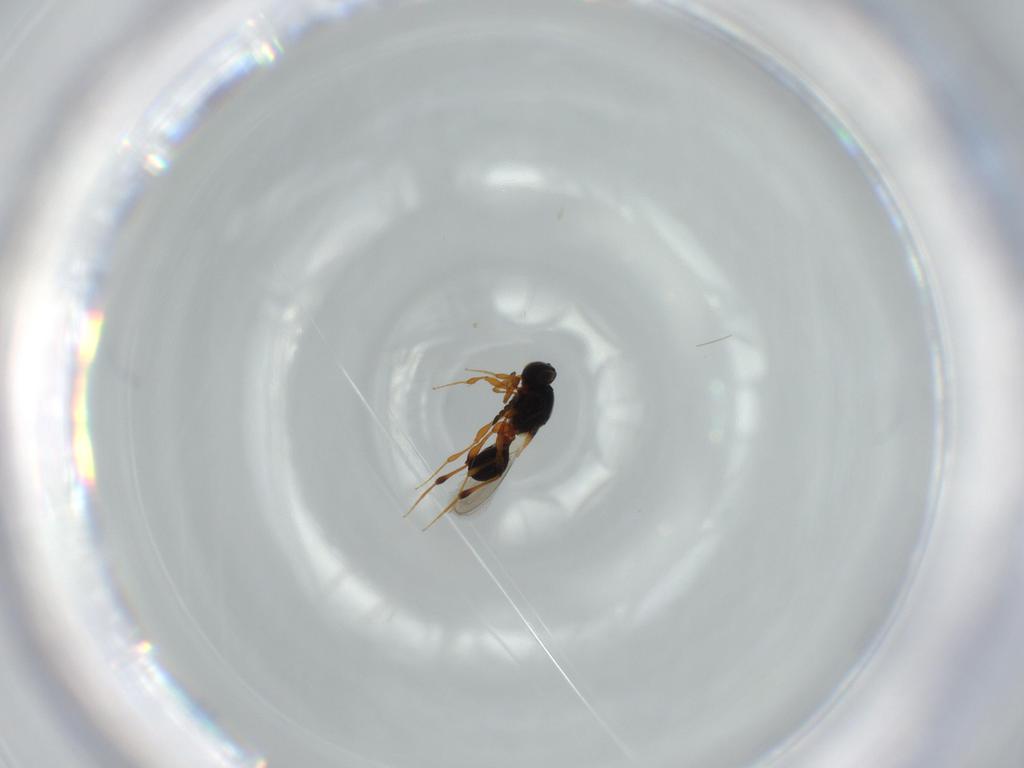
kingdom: Animalia
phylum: Arthropoda
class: Insecta
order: Hymenoptera
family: Platygastridae
